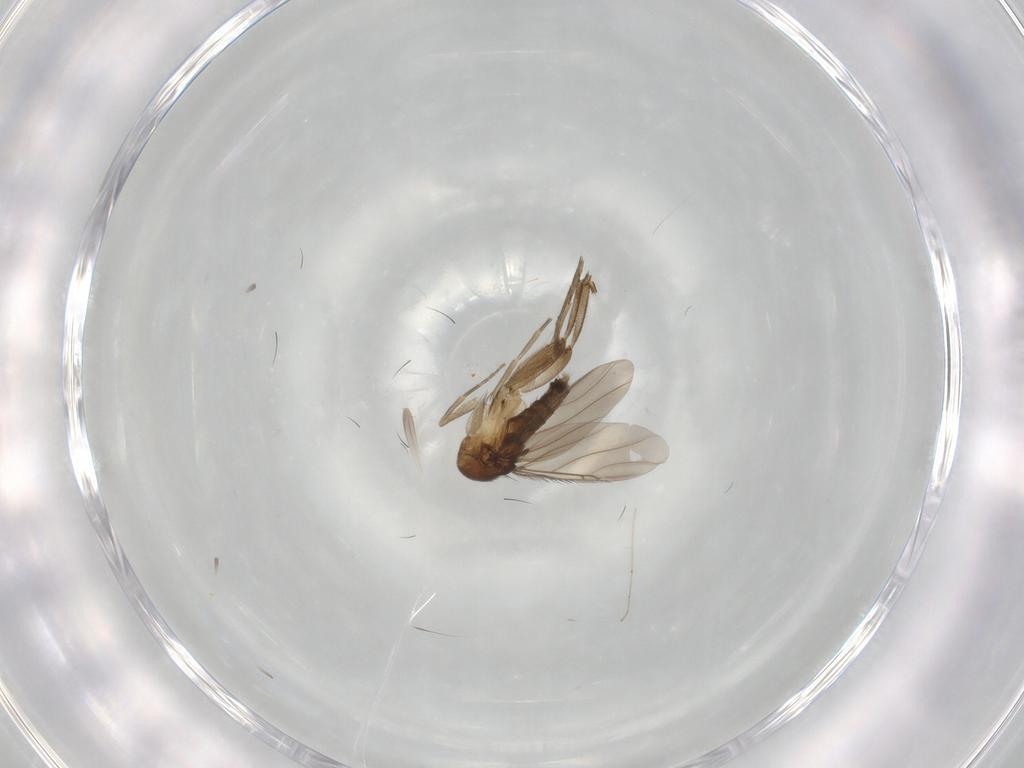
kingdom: Animalia
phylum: Arthropoda
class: Insecta
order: Diptera
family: Phoridae
